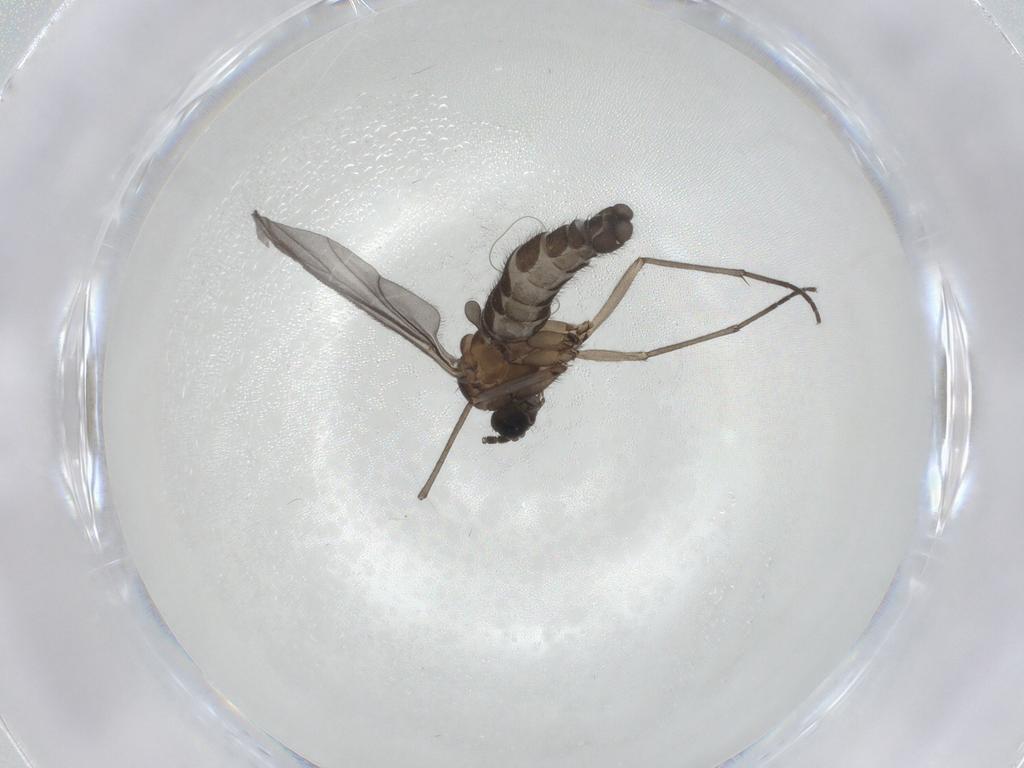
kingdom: Animalia
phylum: Arthropoda
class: Insecta
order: Diptera
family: Sciaridae
